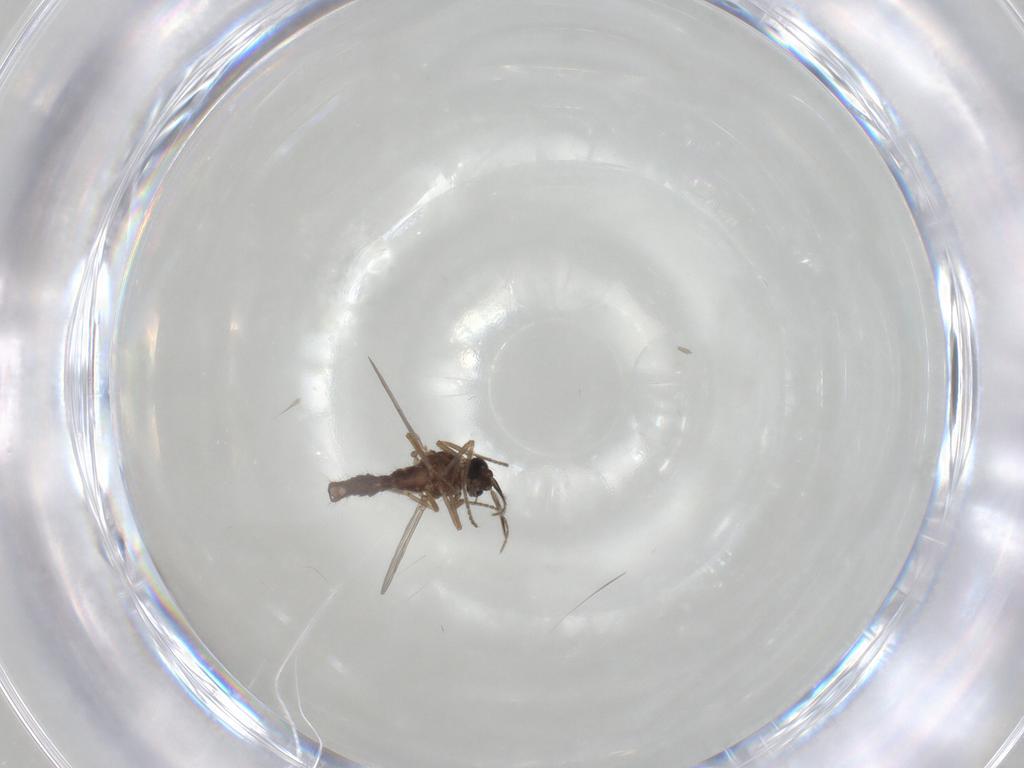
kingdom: Animalia
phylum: Arthropoda
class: Insecta
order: Diptera
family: Ceratopogonidae
